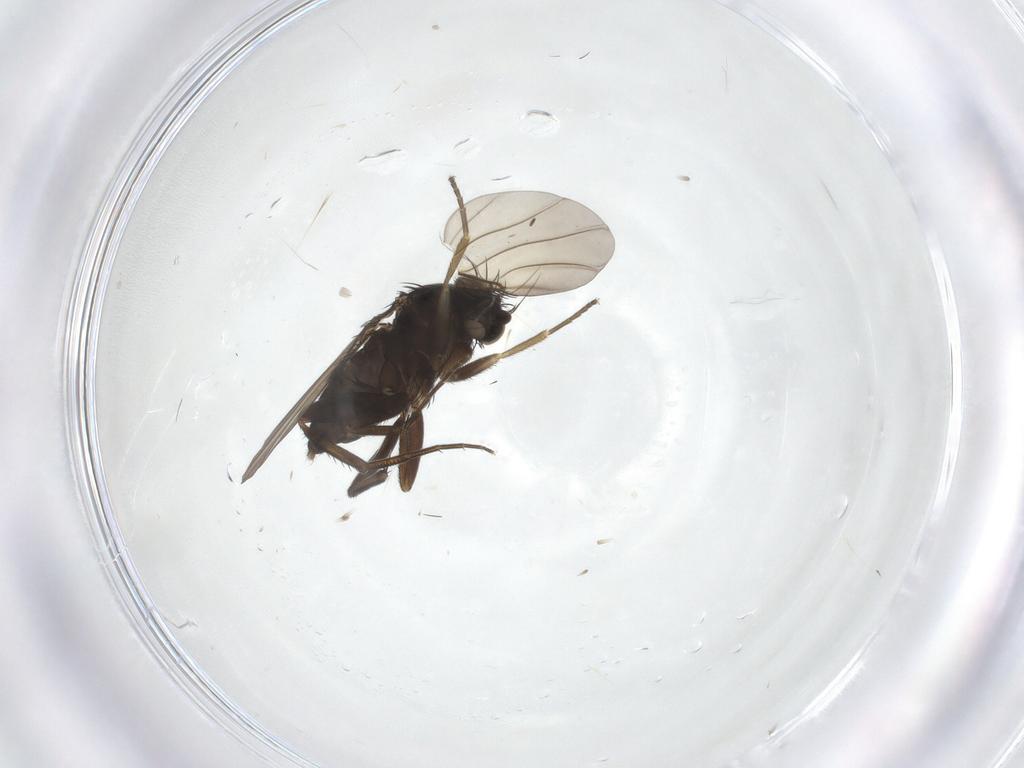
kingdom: Animalia
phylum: Arthropoda
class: Insecta
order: Diptera
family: Phoridae
